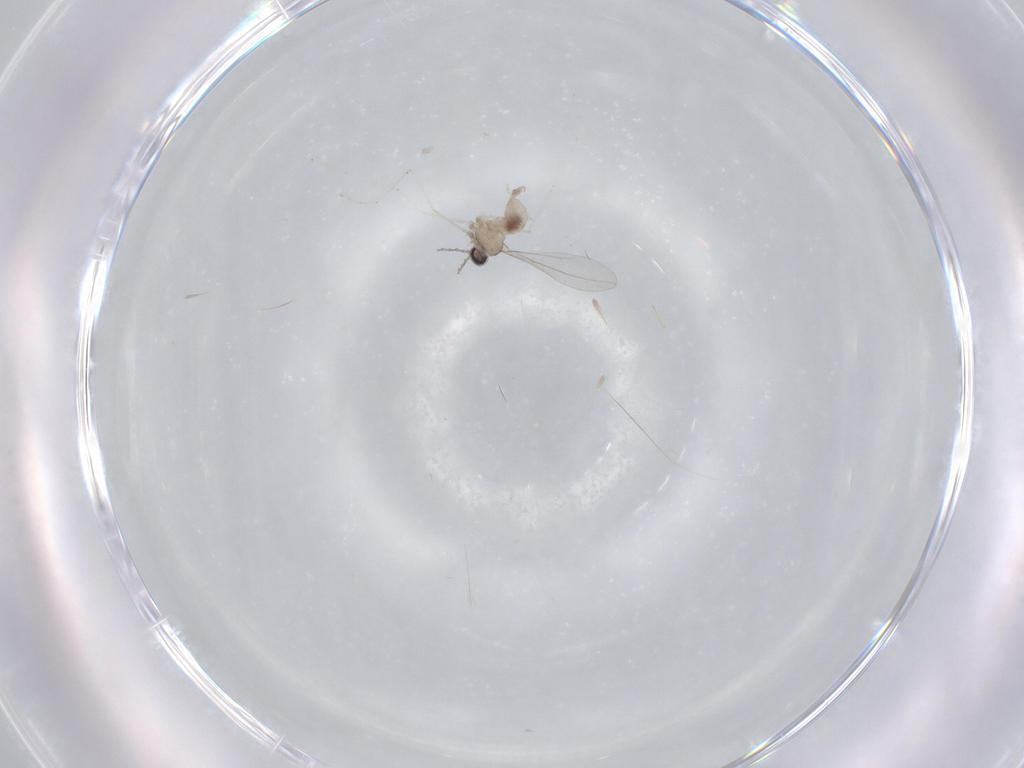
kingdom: Animalia
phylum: Arthropoda
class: Insecta
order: Diptera
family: Cecidomyiidae
